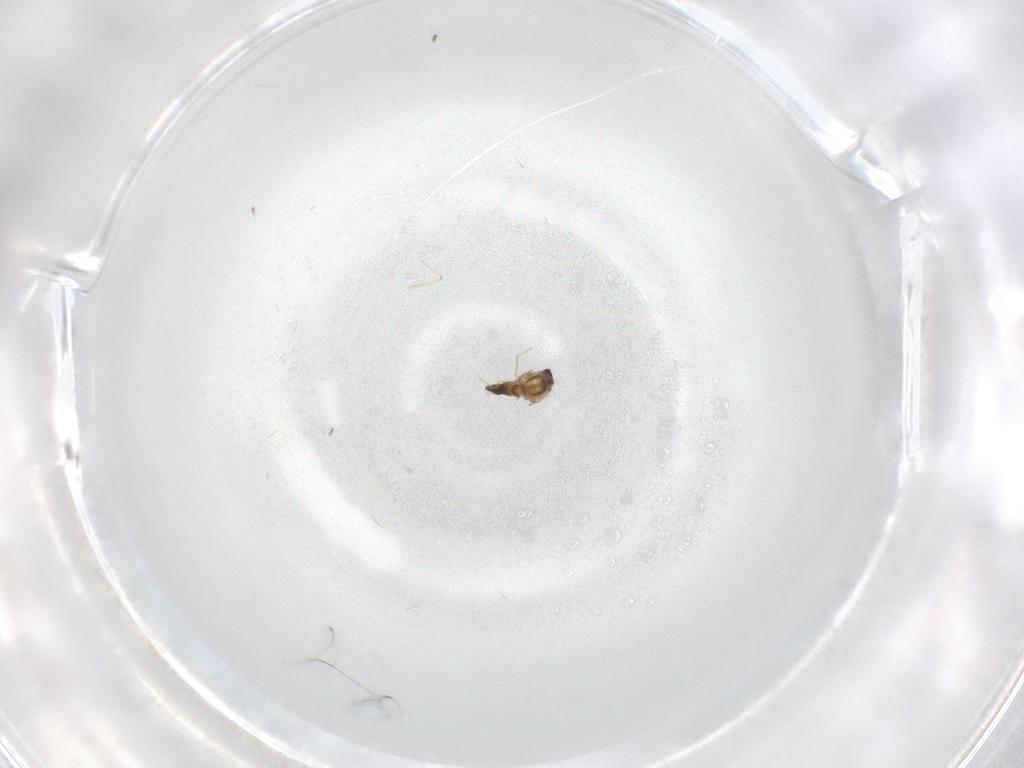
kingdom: Animalia
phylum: Arthropoda
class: Insecta
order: Diptera
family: Chironomidae
